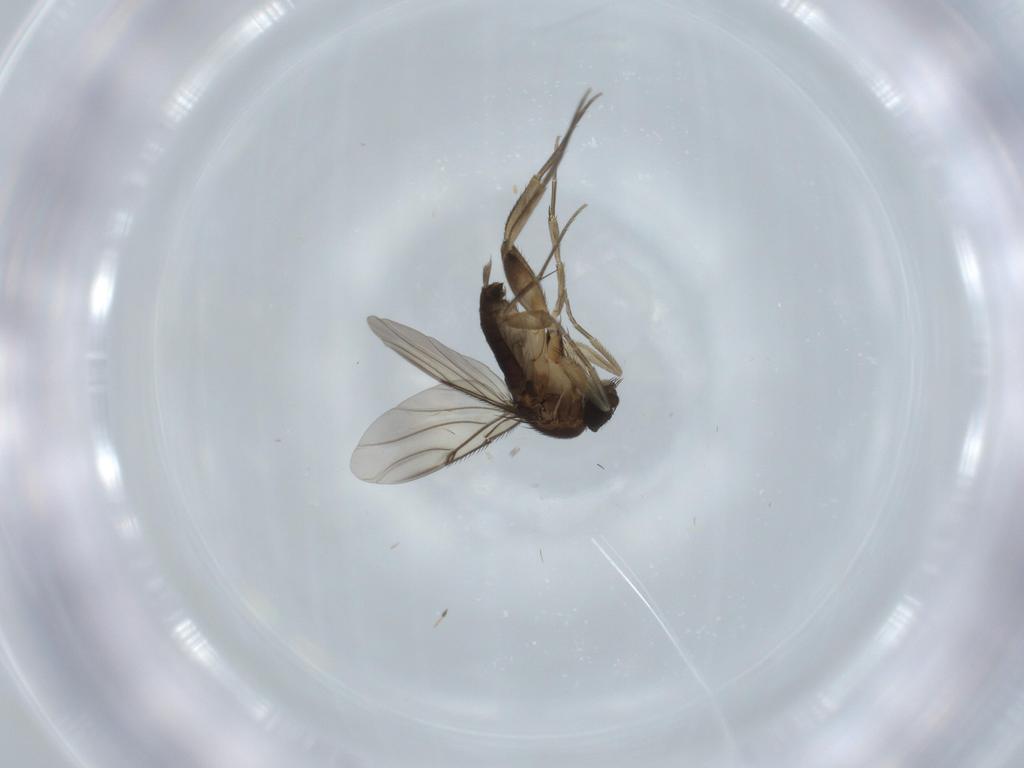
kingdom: Animalia
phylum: Arthropoda
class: Insecta
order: Diptera
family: Phoridae
